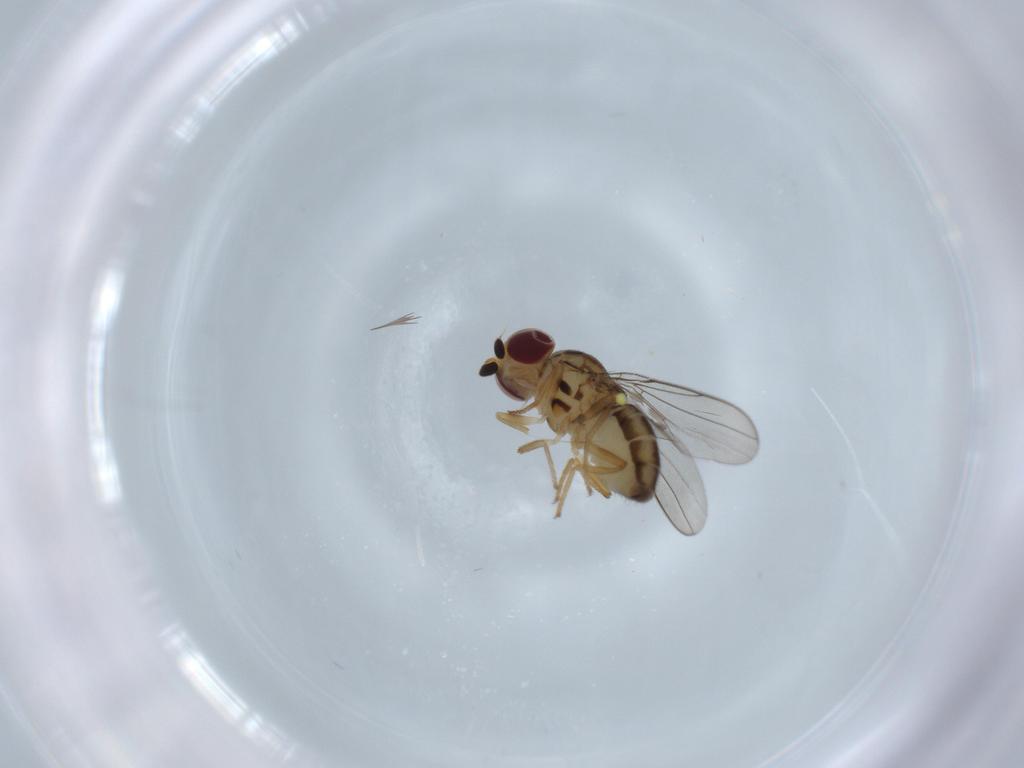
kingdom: Animalia
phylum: Arthropoda
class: Insecta
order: Diptera
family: Chloropidae
